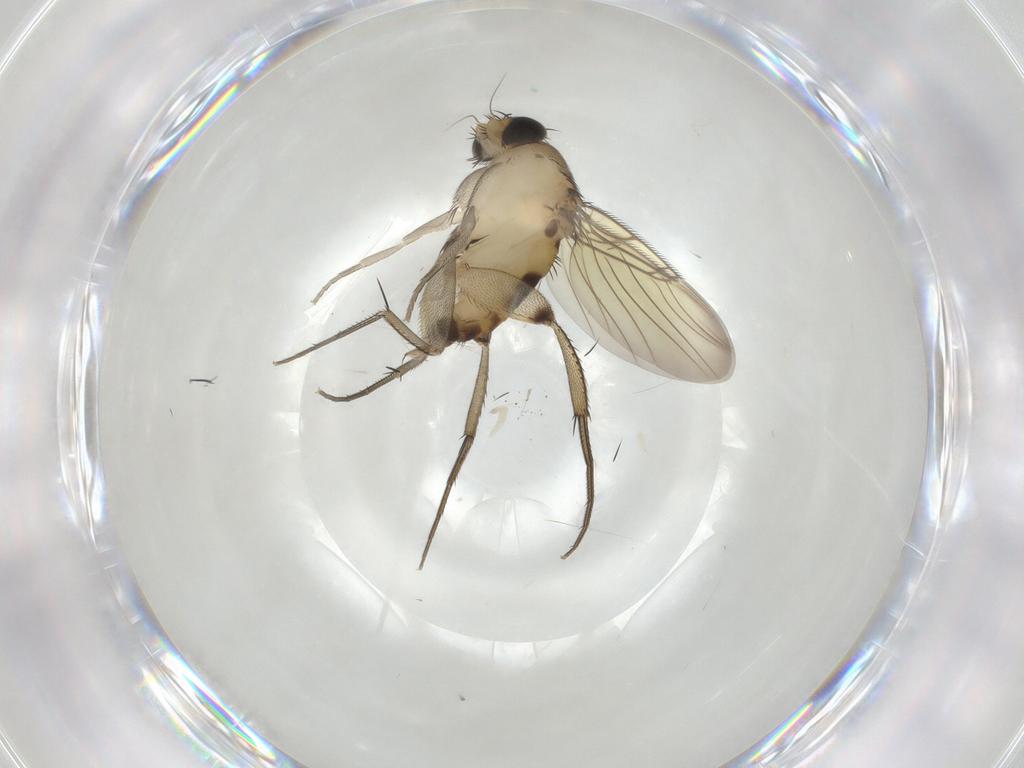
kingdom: Animalia
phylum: Arthropoda
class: Insecta
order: Diptera
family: Phoridae
